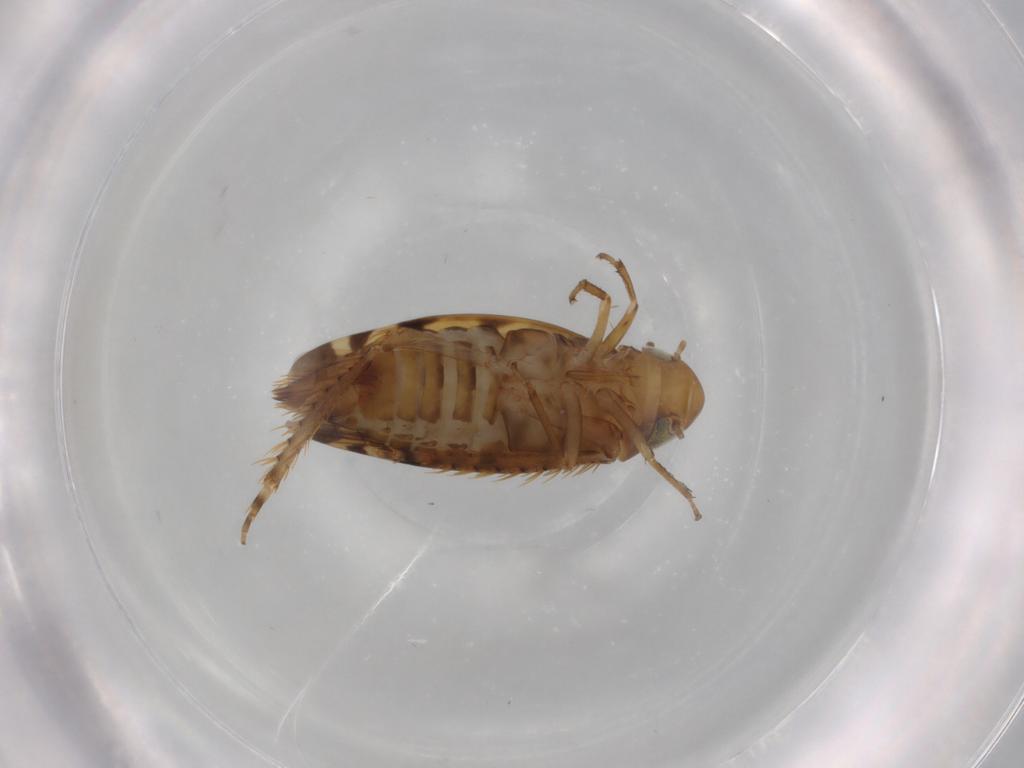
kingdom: Animalia
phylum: Arthropoda
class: Insecta
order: Hemiptera
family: Cicadellidae
